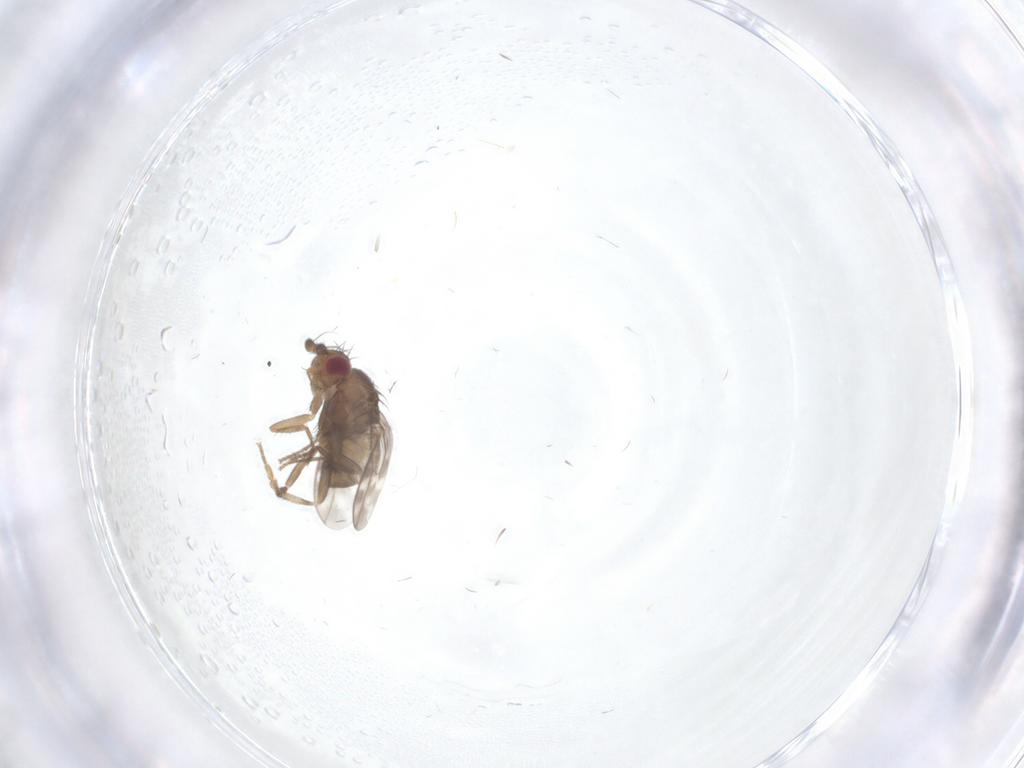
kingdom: Animalia
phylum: Arthropoda
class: Insecta
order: Diptera
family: Sphaeroceridae
